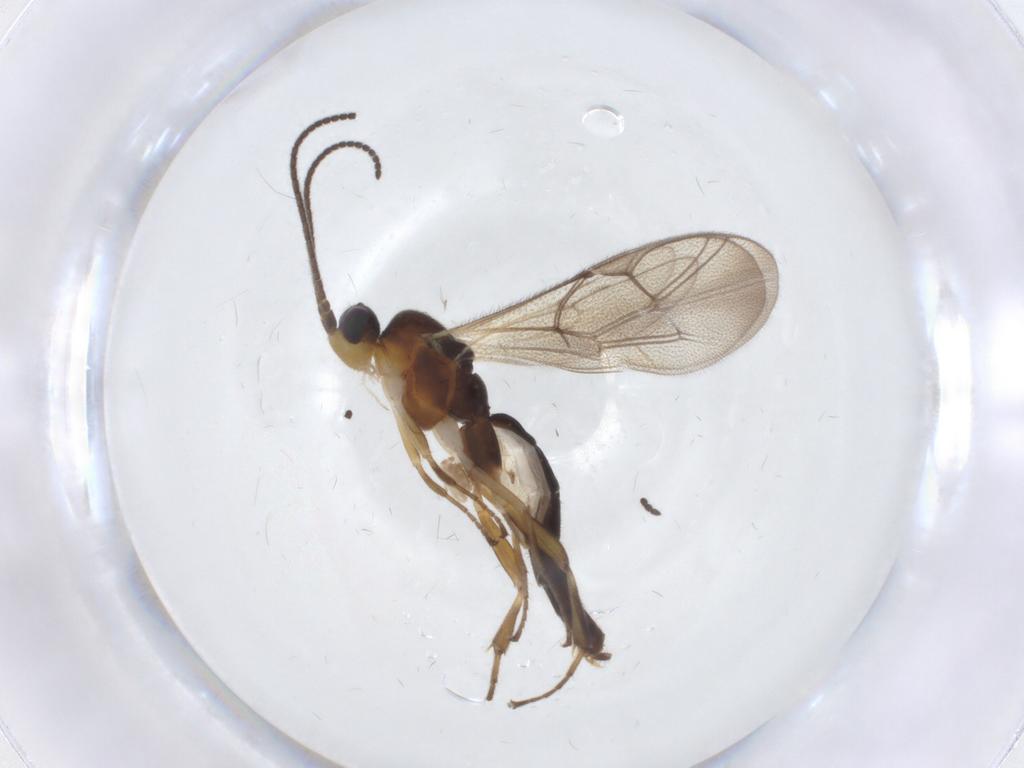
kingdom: Animalia
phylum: Arthropoda
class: Insecta
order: Hymenoptera
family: Ichneumonidae
